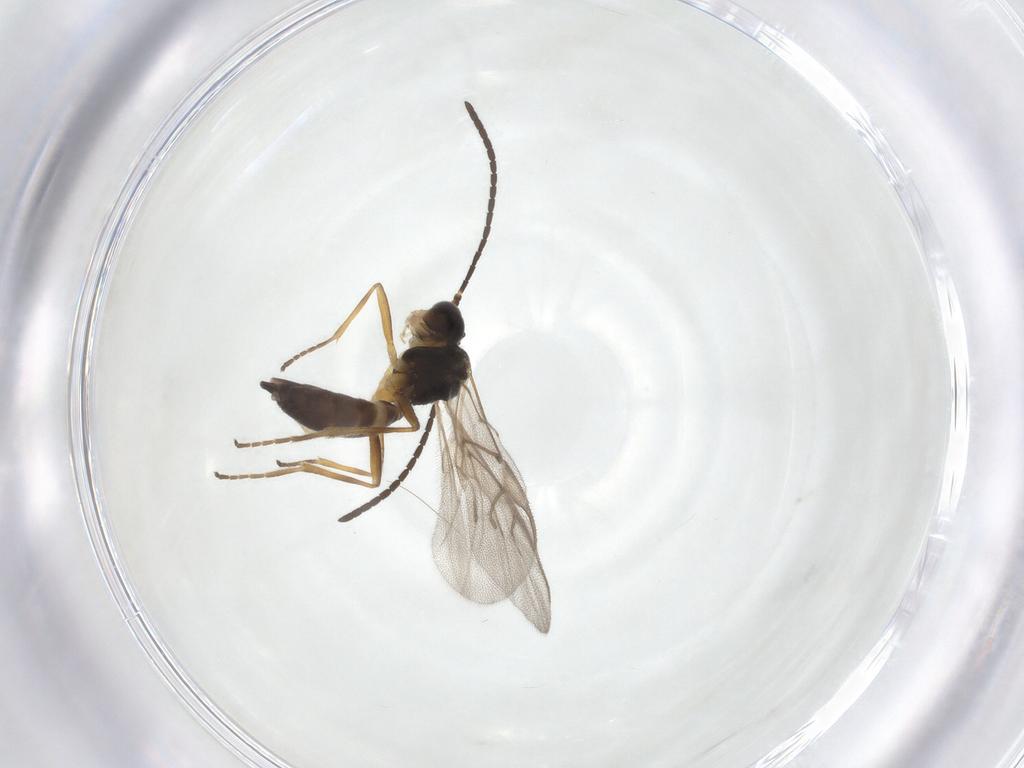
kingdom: Animalia
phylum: Arthropoda
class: Insecta
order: Hymenoptera
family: Braconidae
